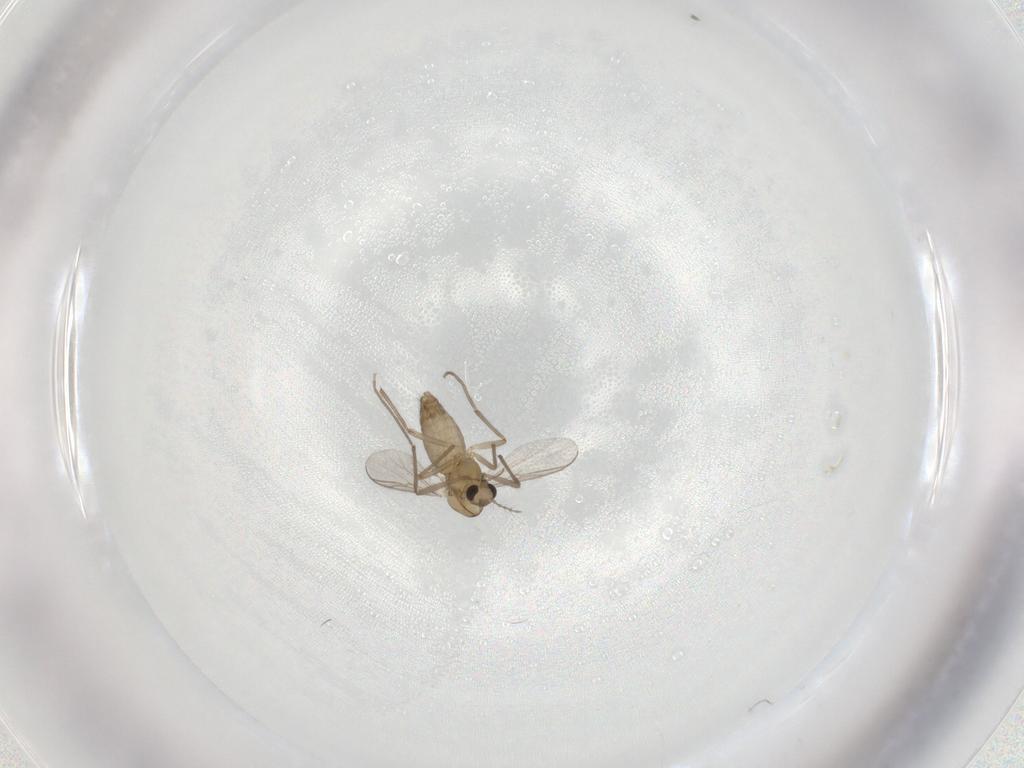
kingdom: Animalia
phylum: Arthropoda
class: Insecta
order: Diptera
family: Chironomidae
